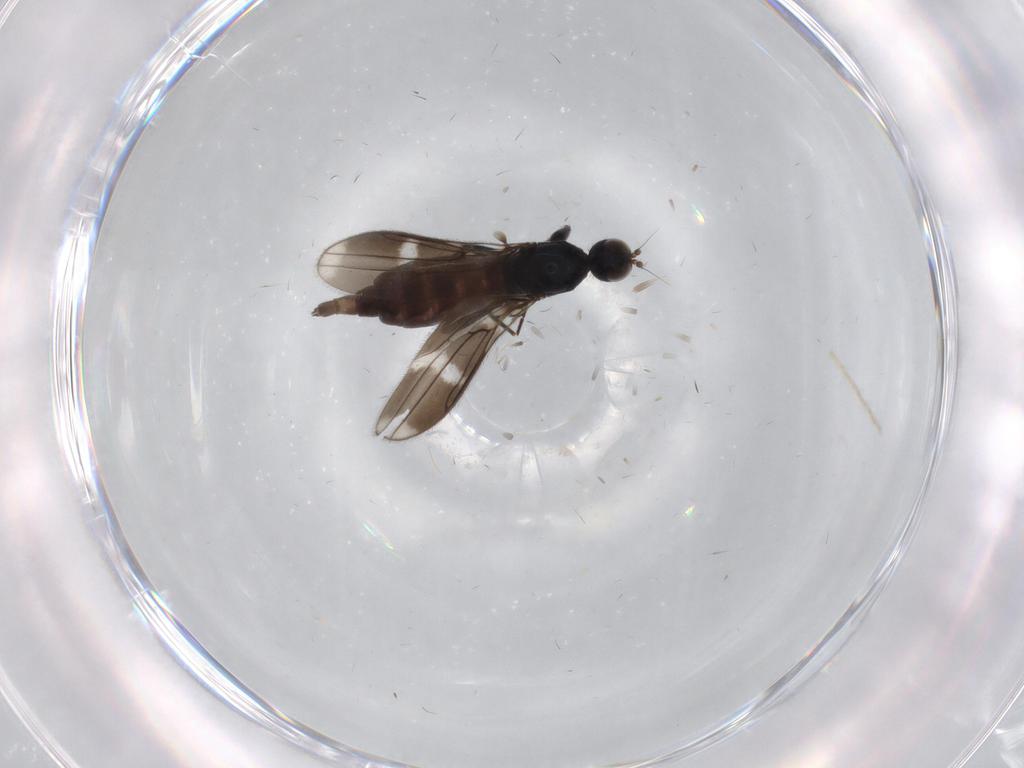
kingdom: Animalia
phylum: Arthropoda
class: Insecta
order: Diptera
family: Hybotidae
